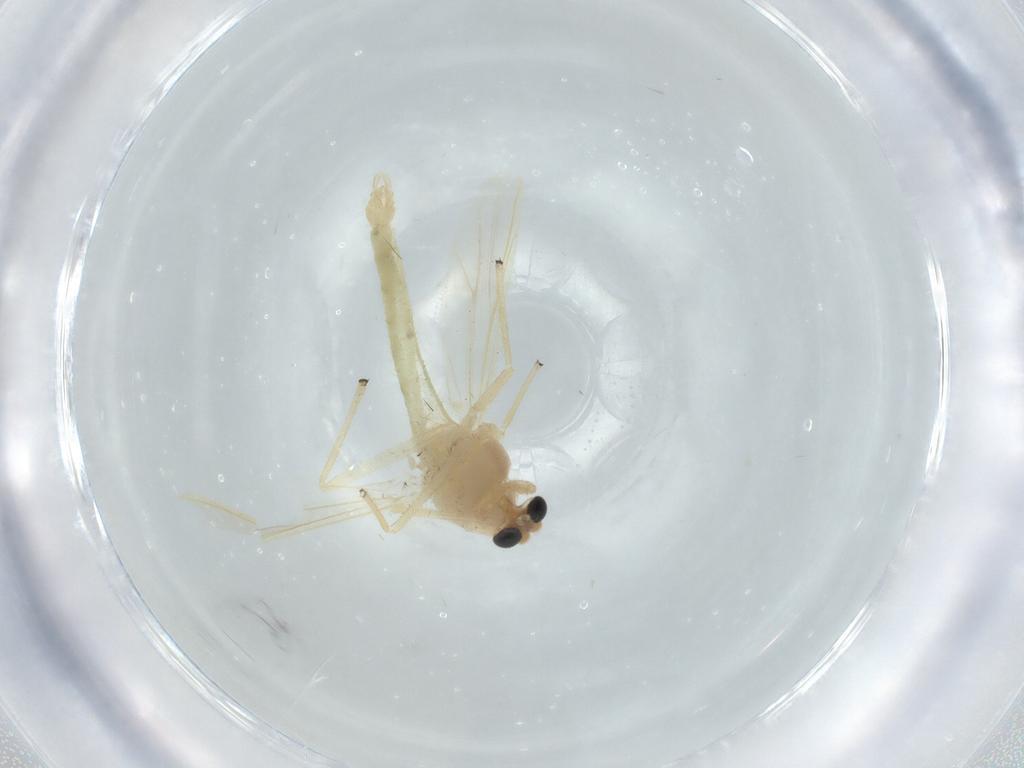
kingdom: Animalia
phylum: Arthropoda
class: Insecta
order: Diptera
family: Chironomidae
